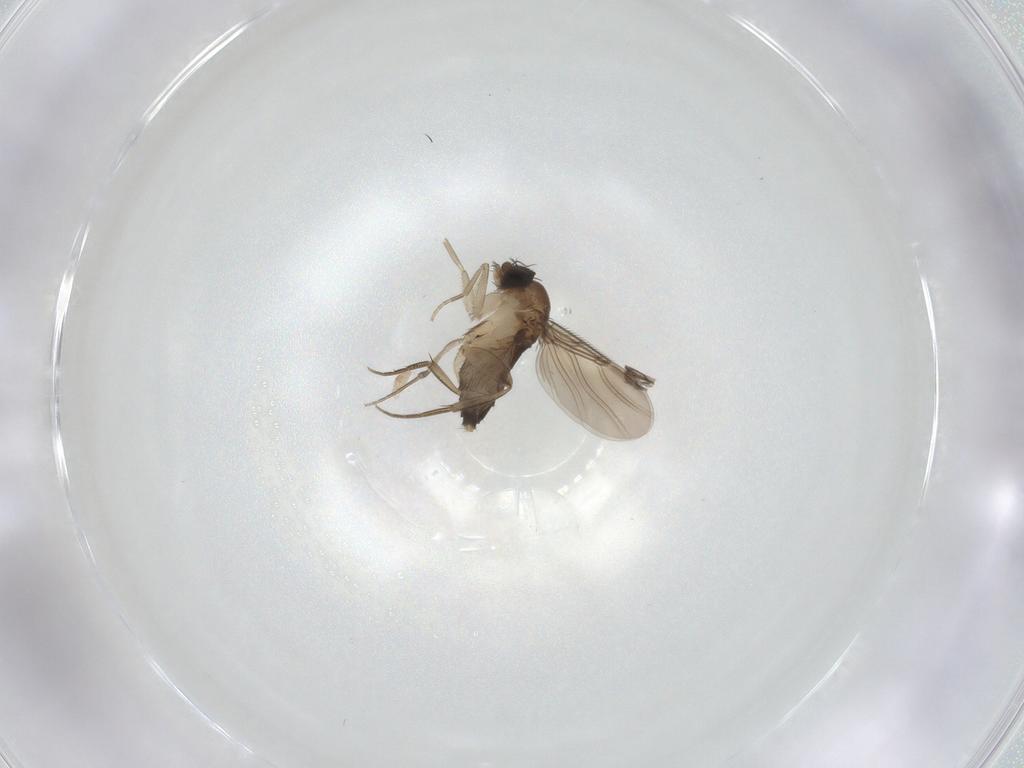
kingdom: Animalia
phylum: Arthropoda
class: Insecta
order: Diptera
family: Phoridae
